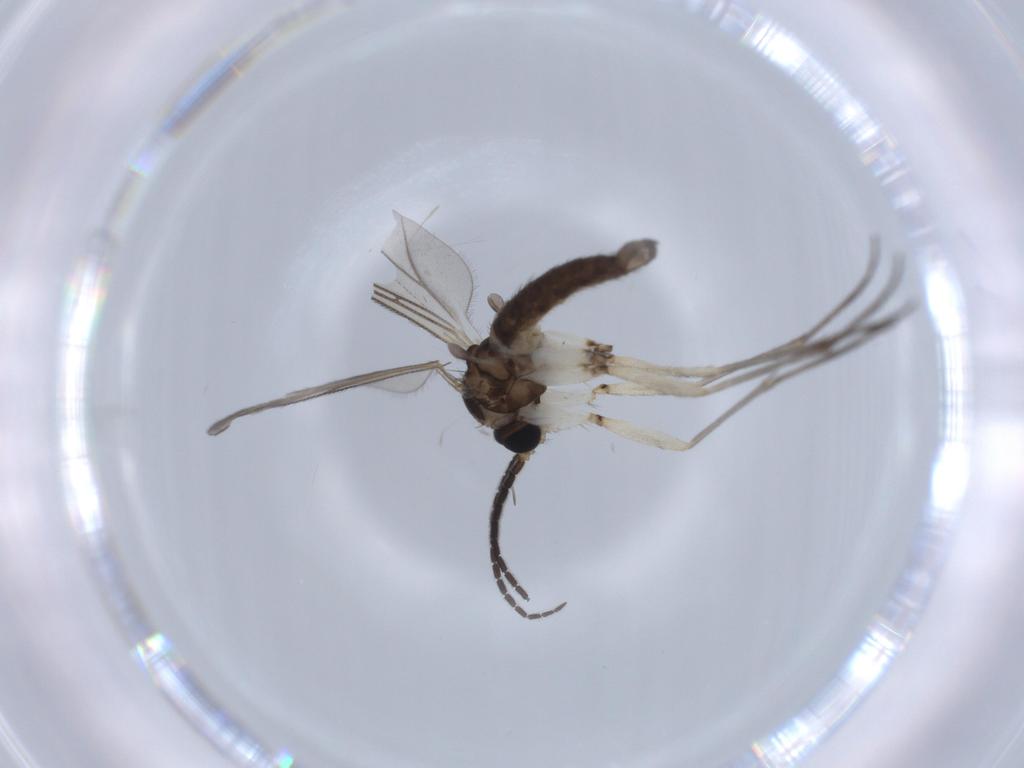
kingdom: Animalia
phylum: Arthropoda
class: Insecta
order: Diptera
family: Sciaridae
